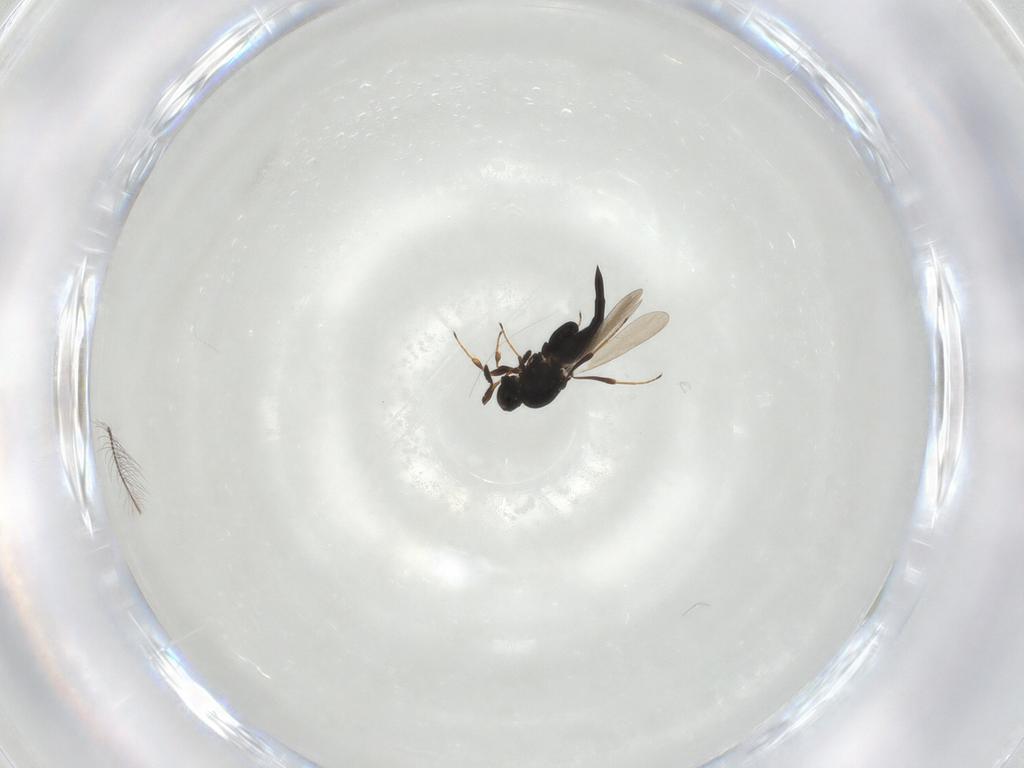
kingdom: Animalia
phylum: Arthropoda
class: Insecta
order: Hymenoptera
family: Platygastridae
